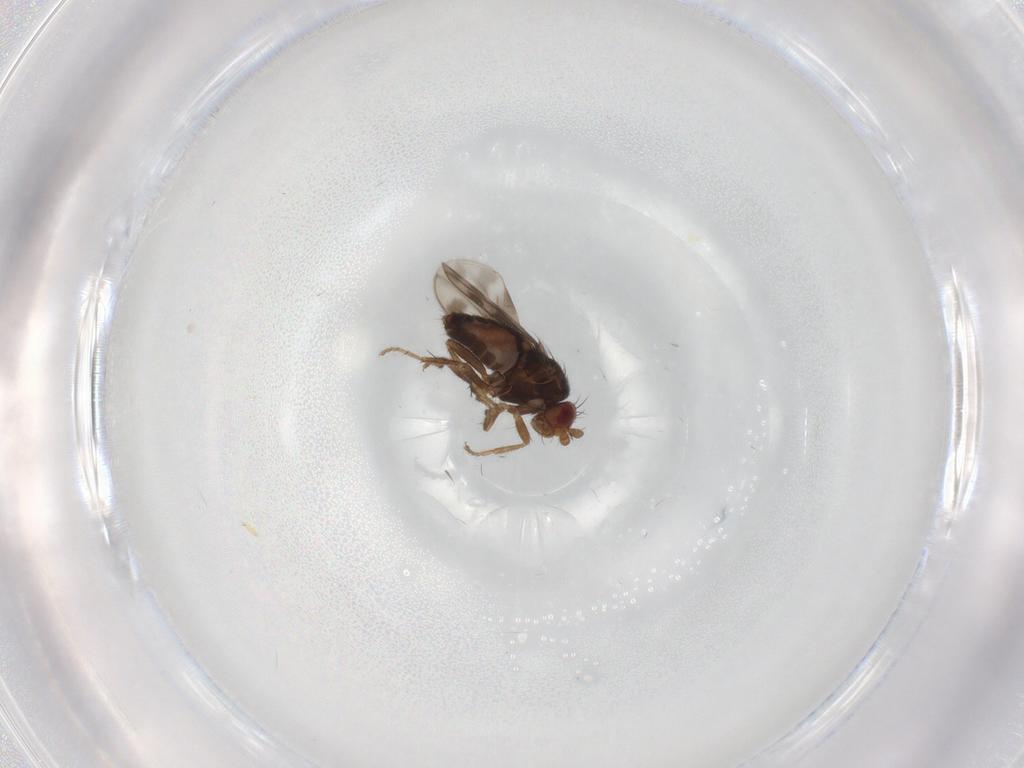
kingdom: Animalia
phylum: Arthropoda
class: Insecta
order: Diptera
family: Sphaeroceridae
